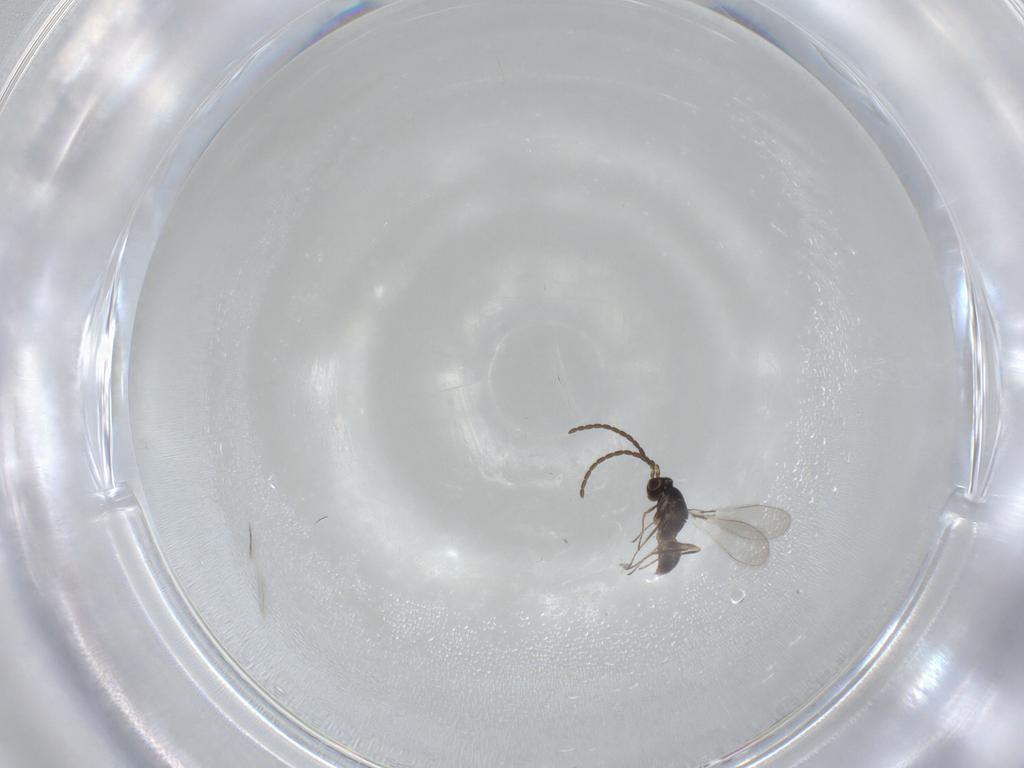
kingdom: Animalia
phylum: Arthropoda
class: Insecta
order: Hymenoptera
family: Mymaridae
